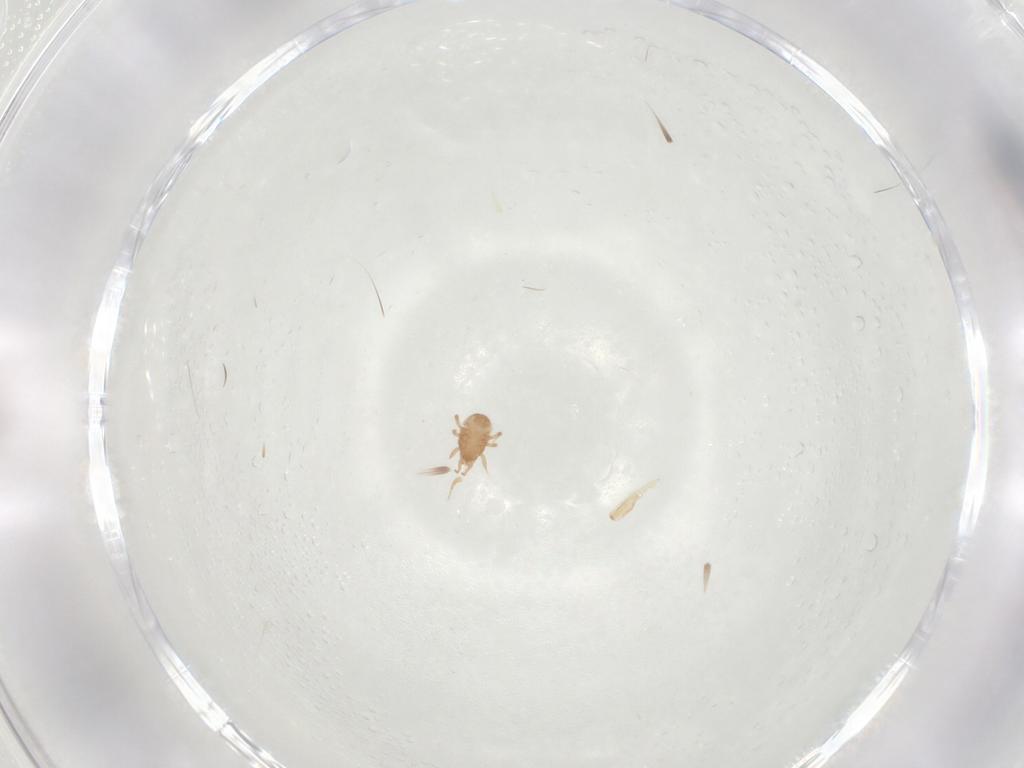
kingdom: Animalia
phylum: Arthropoda
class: Arachnida
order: Mesostigmata
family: Blattisociidae
